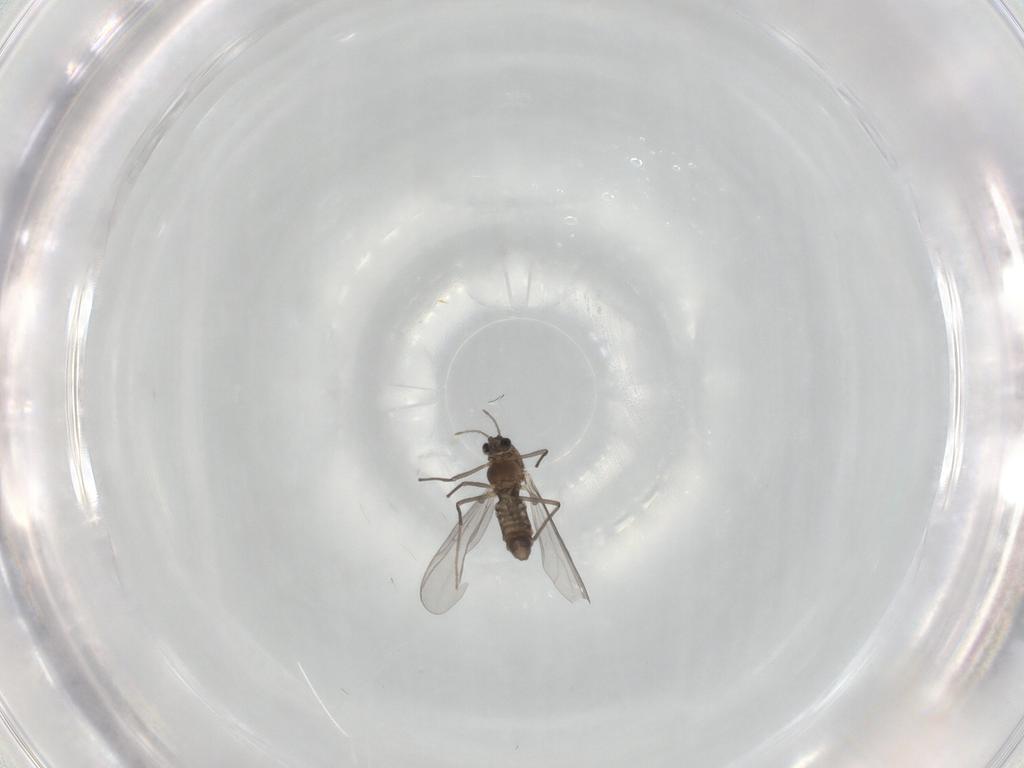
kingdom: Animalia
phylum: Arthropoda
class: Insecta
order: Diptera
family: Chironomidae
